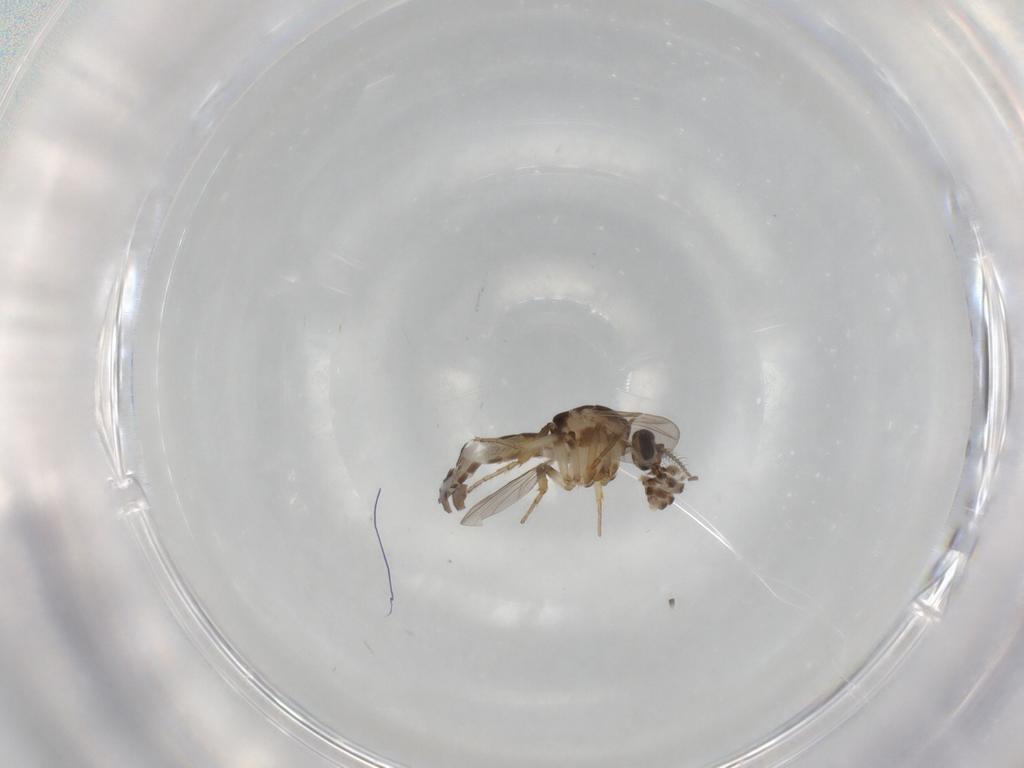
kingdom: Animalia
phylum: Arthropoda
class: Insecta
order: Diptera
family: Ceratopogonidae
